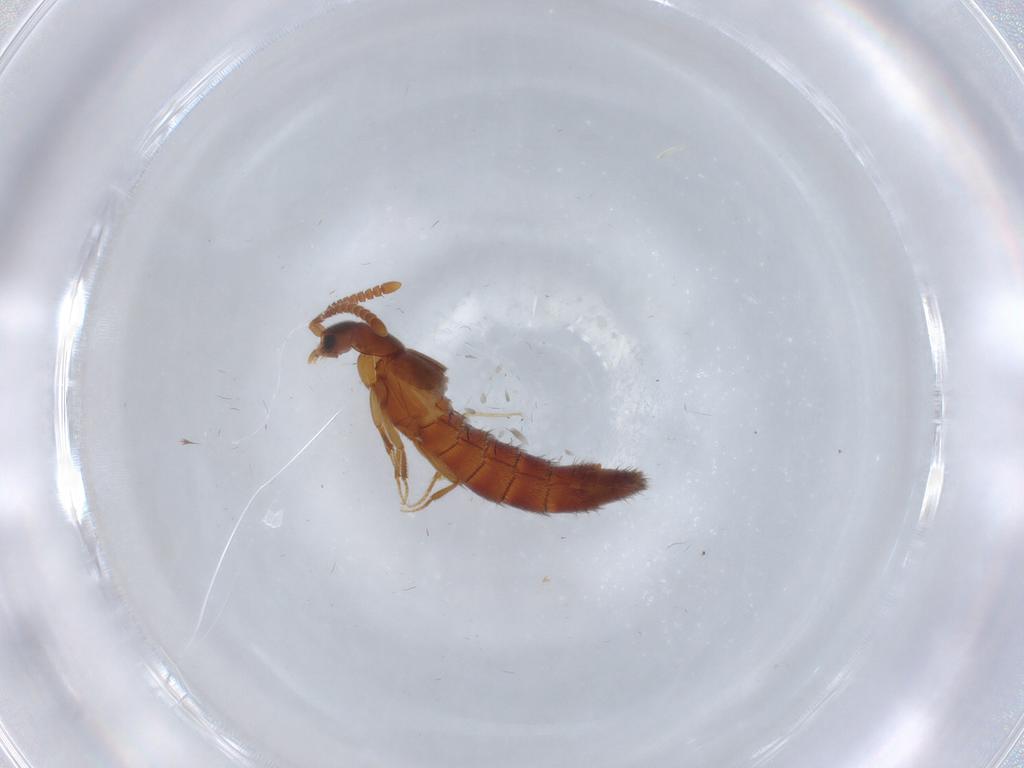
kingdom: Animalia
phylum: Arthropoda
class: Insecta
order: Coleoptera
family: Staphylinidae
